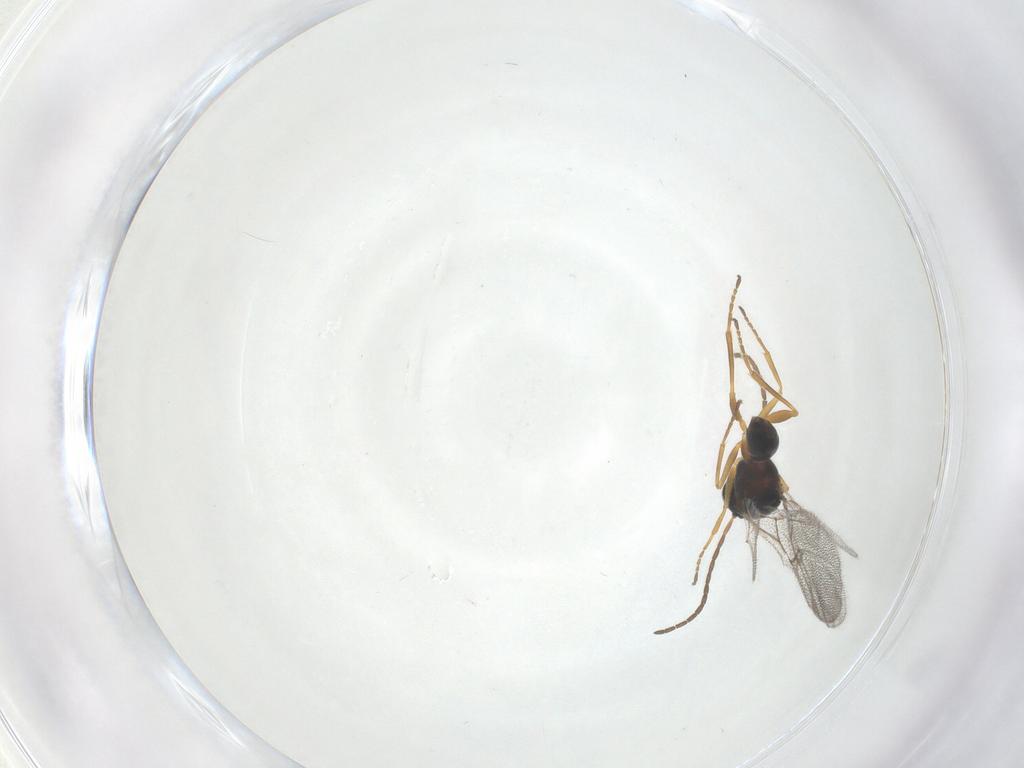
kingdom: Animalia
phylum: Arthropoda
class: Insecta
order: Hymenoptera
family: Cynipidae
